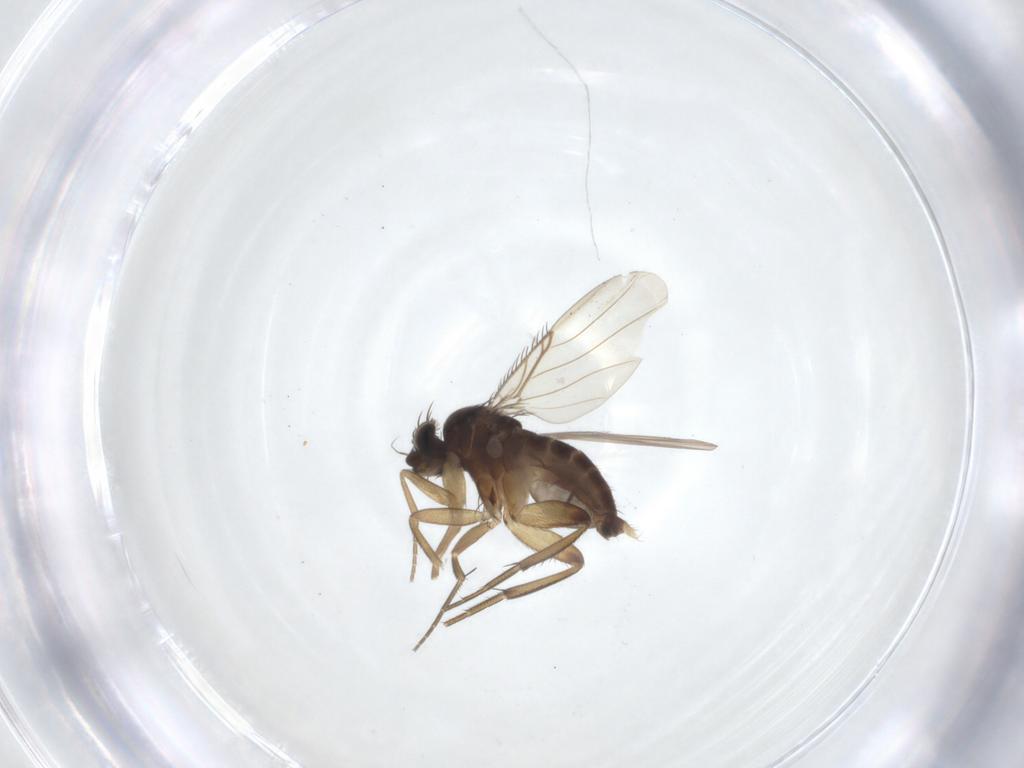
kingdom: Animalia
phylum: Arthropoda
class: Insecta
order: Diptera
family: Phoridae
